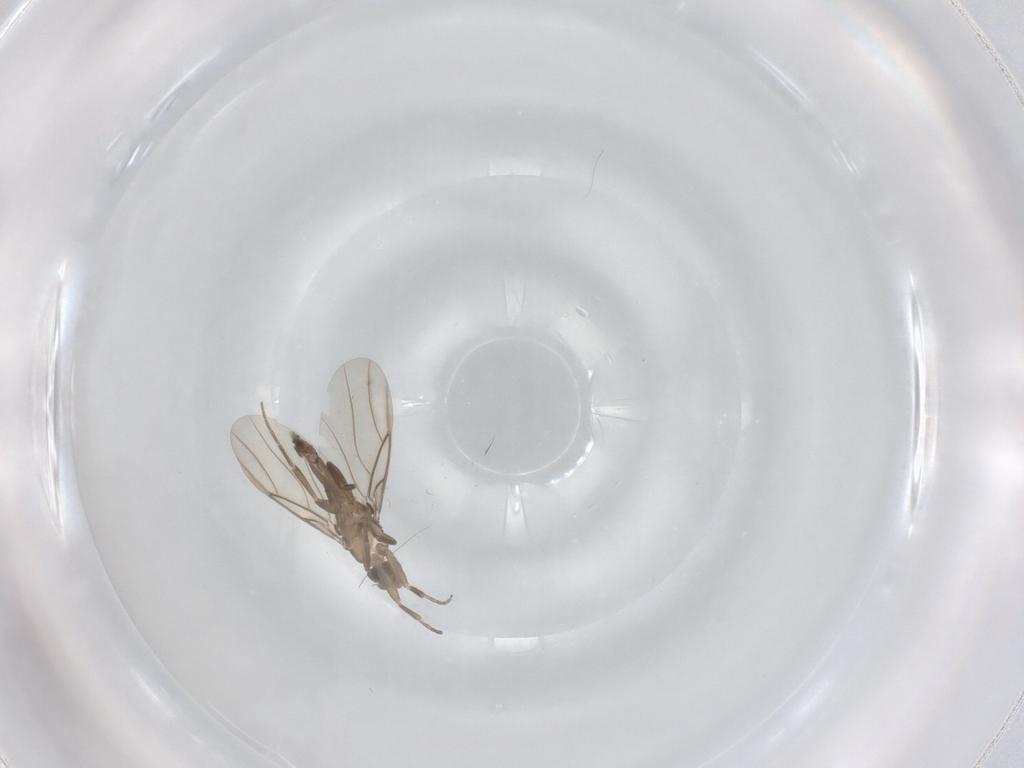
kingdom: Animalia
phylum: Arthropoda
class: Insecta
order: Diptera
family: Phoridae
